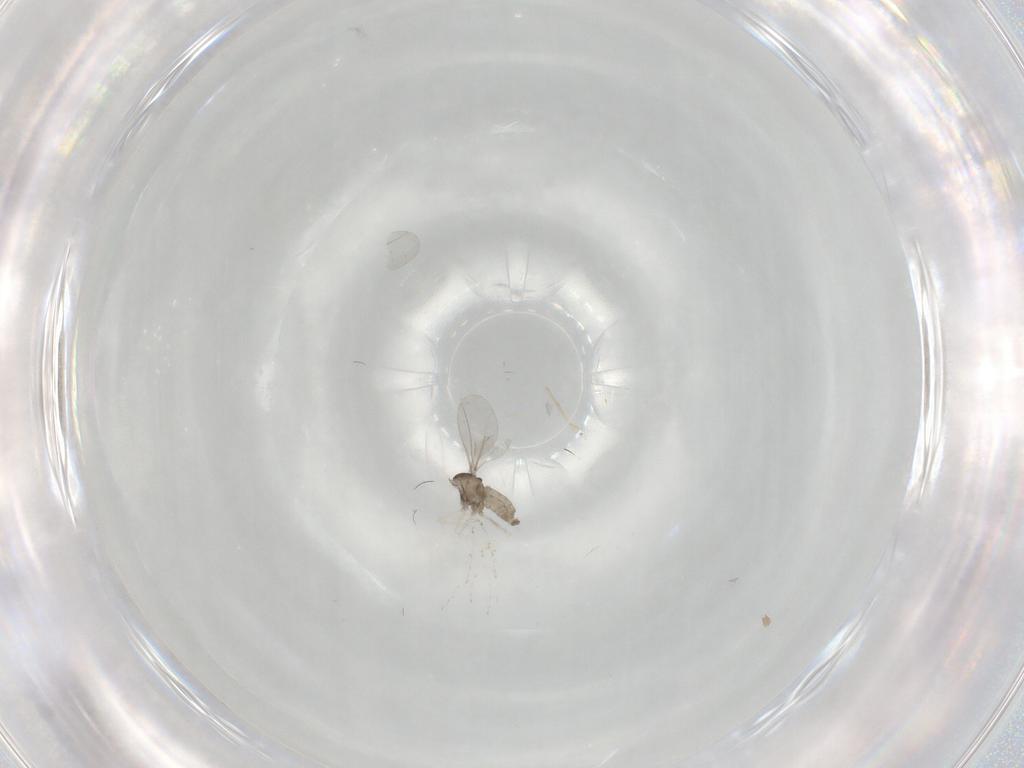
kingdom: Animalia
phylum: Arthropoda
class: Insecta
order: Diptera
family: Cecidomyiidae
